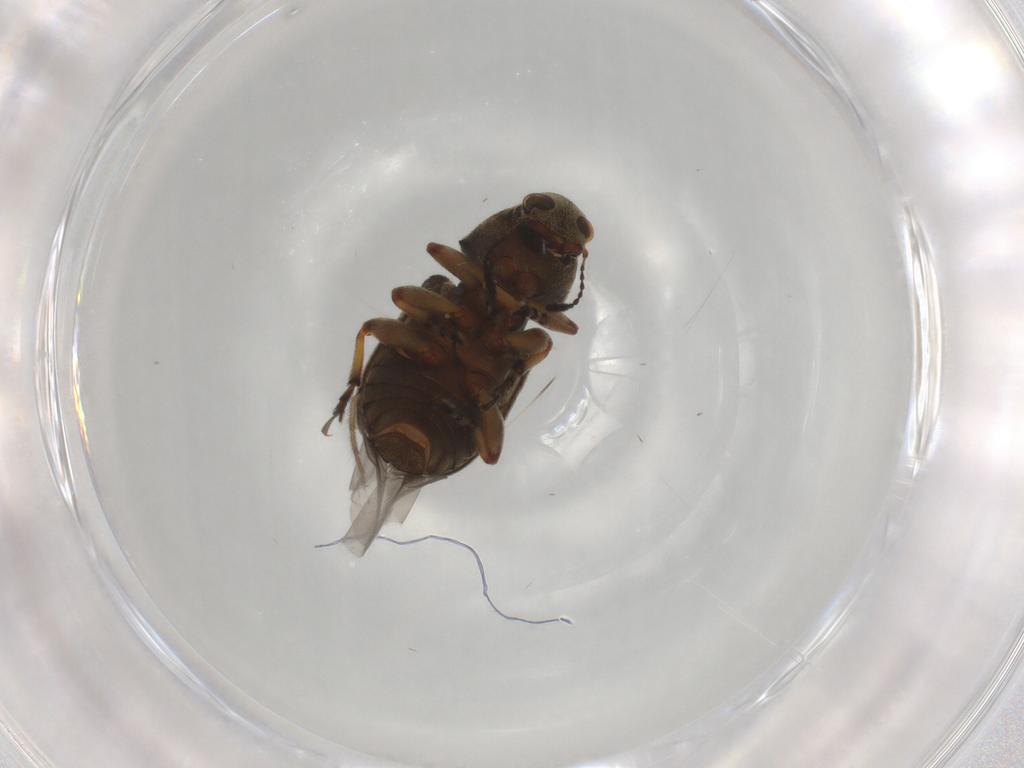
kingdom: Animalia
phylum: Arthropoda
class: Insecta
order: Coleoptera
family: Anthribidae
